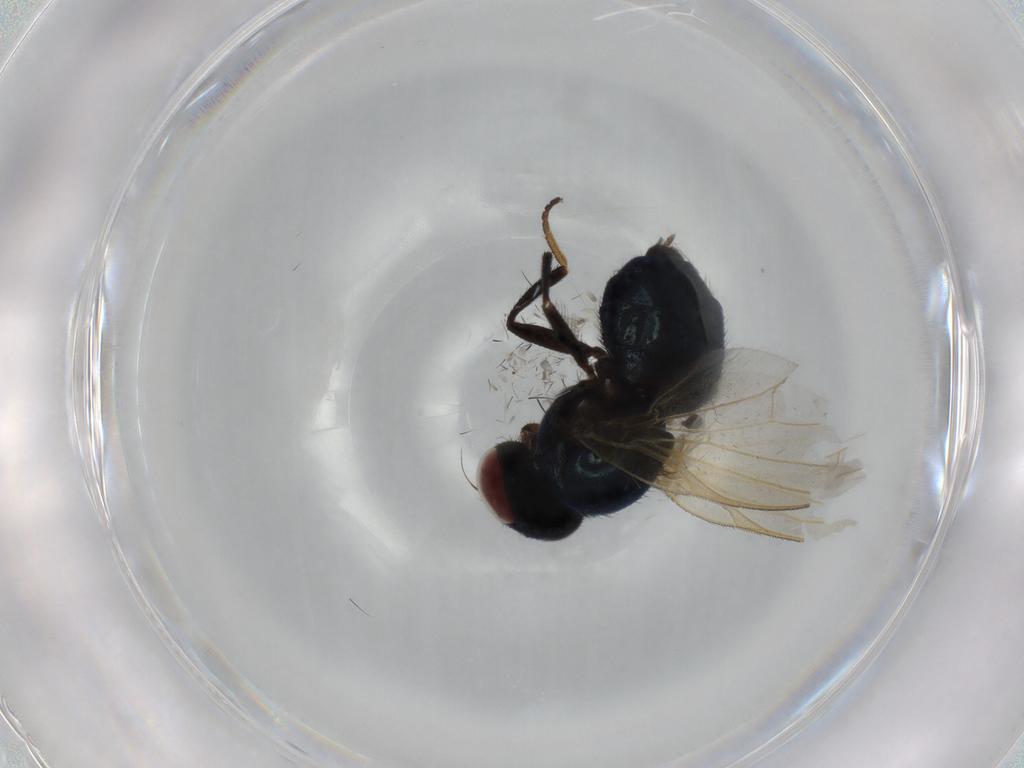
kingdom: Animalia
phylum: Arthropoda
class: Insecta
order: Diptera
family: Lonchaeidae
